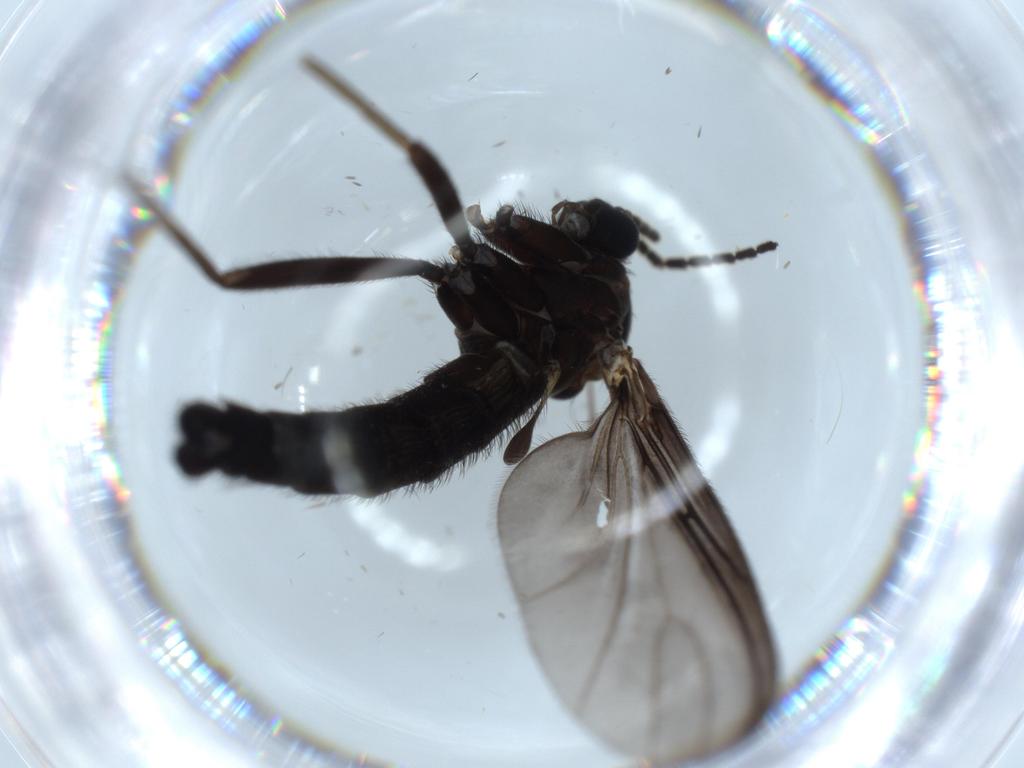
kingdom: Animalia
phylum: Arthropoda
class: Insecta
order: Diptera
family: Sciaridae
